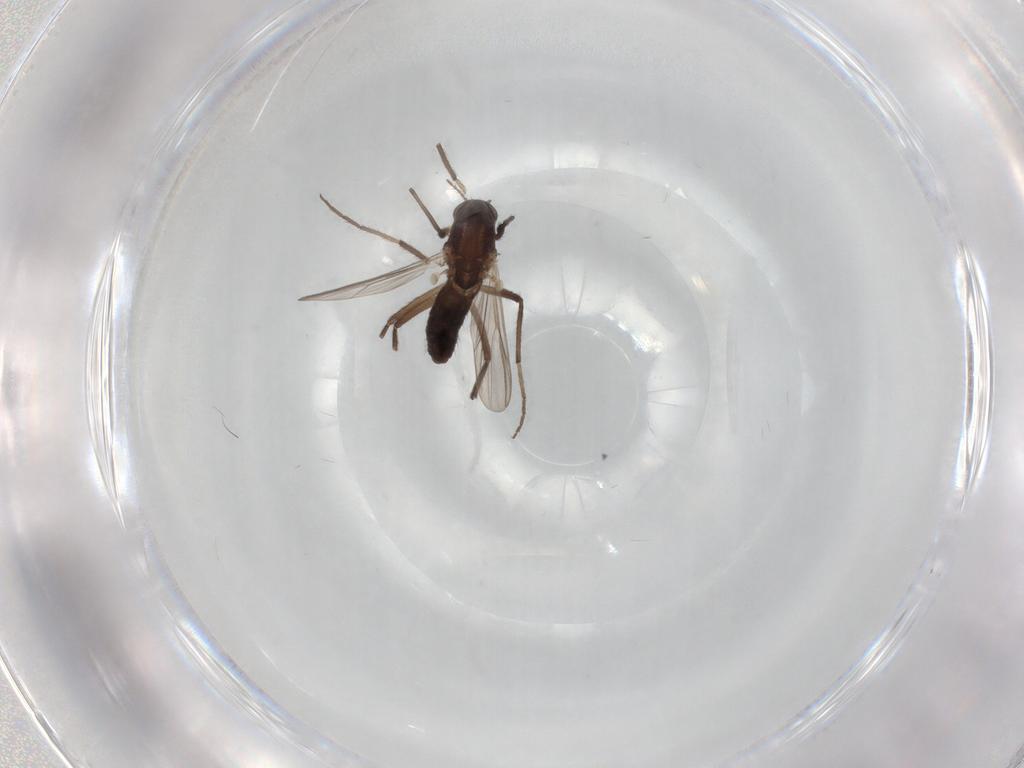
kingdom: Animalia
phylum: Arthropoda
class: Insecta
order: Diptera
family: Chironomidae
